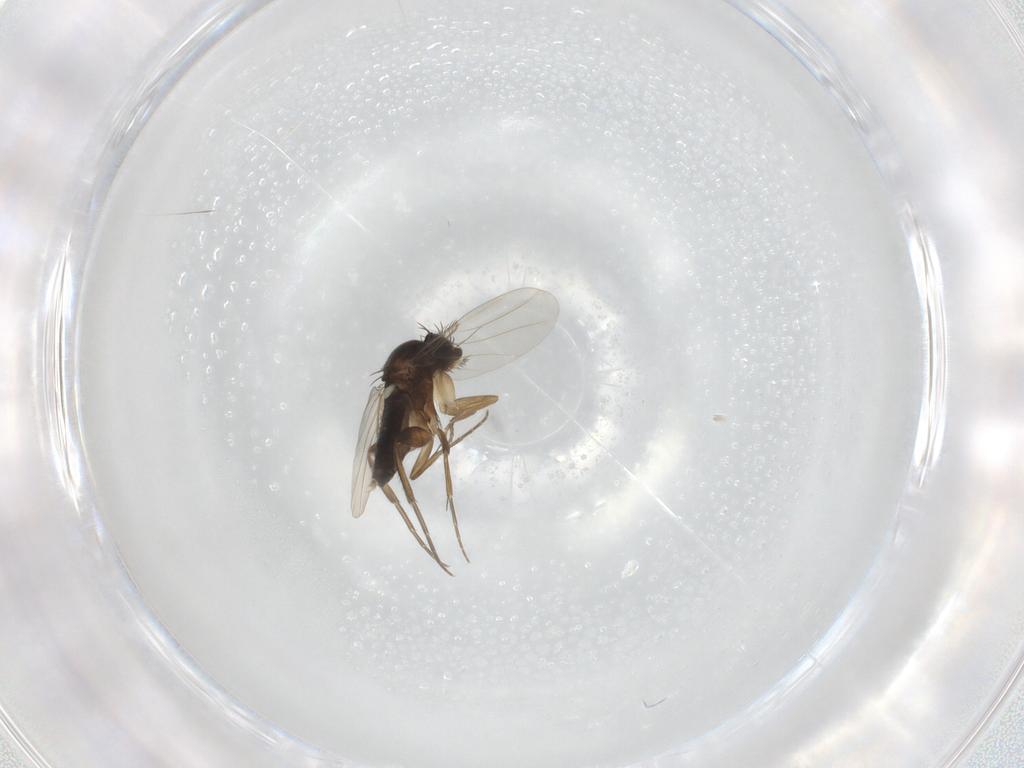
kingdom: Animalia
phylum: Arthropoda
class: Insecta
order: Diptera
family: Phoridae
